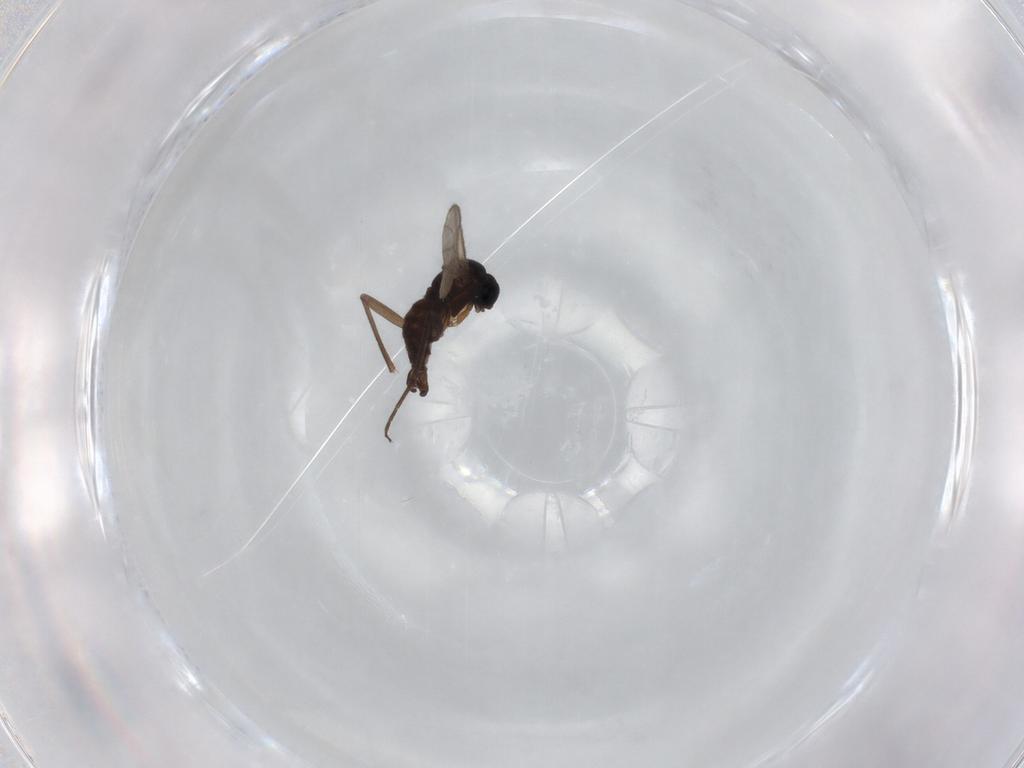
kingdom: Animalia
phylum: Arthropoda
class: Insecta
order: Diptera
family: Sciaridae
